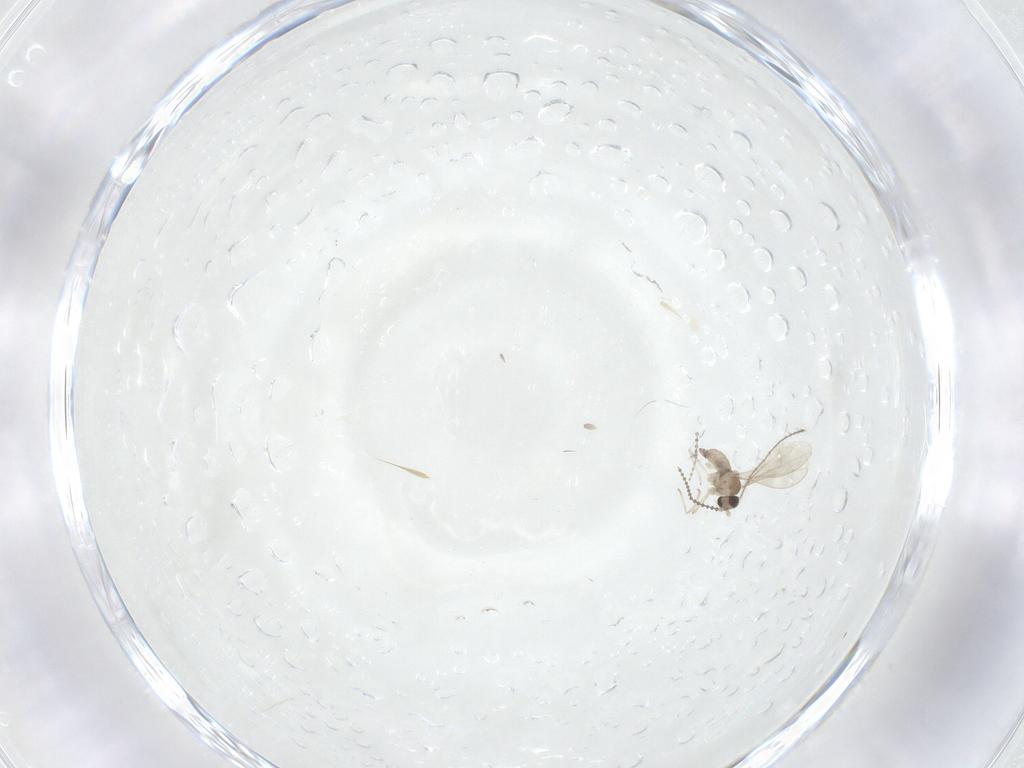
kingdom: Animalia
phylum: Arthropoda
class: Insecta
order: Diptera
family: Cecidomyiidae
